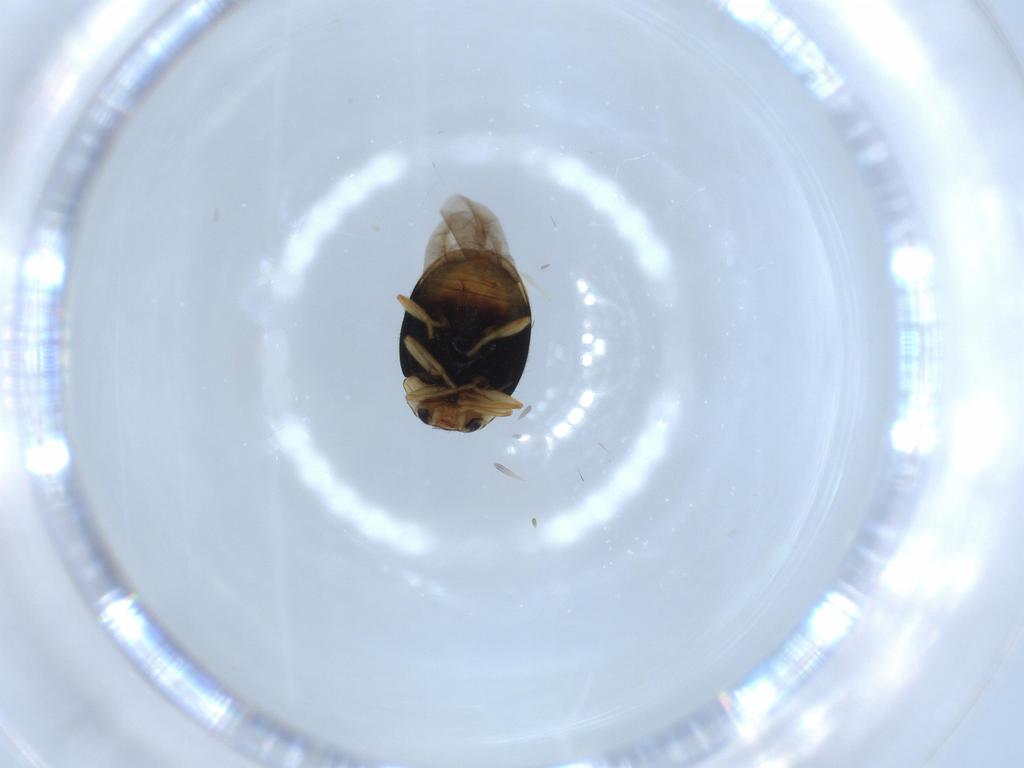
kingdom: Animalia
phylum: Arthropoda
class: Insecta
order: Coleoptera
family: Coccinellidae
